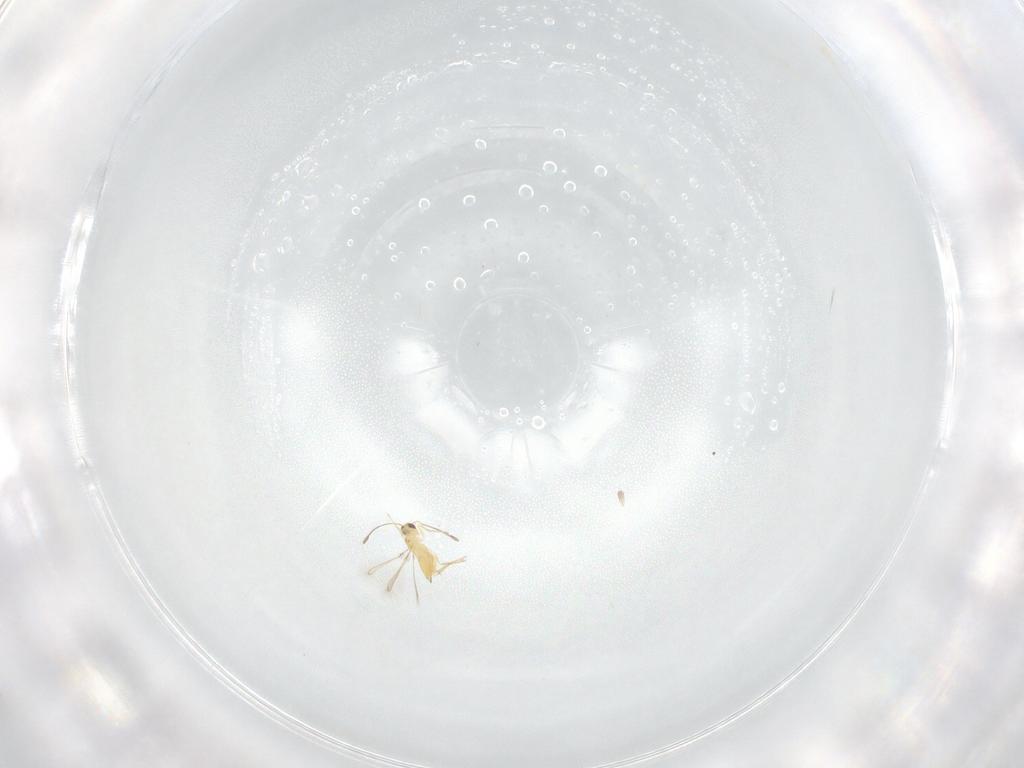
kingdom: Animalia
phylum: Arthropoda
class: Insecta
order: Hymenoptera
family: Mymaridae
